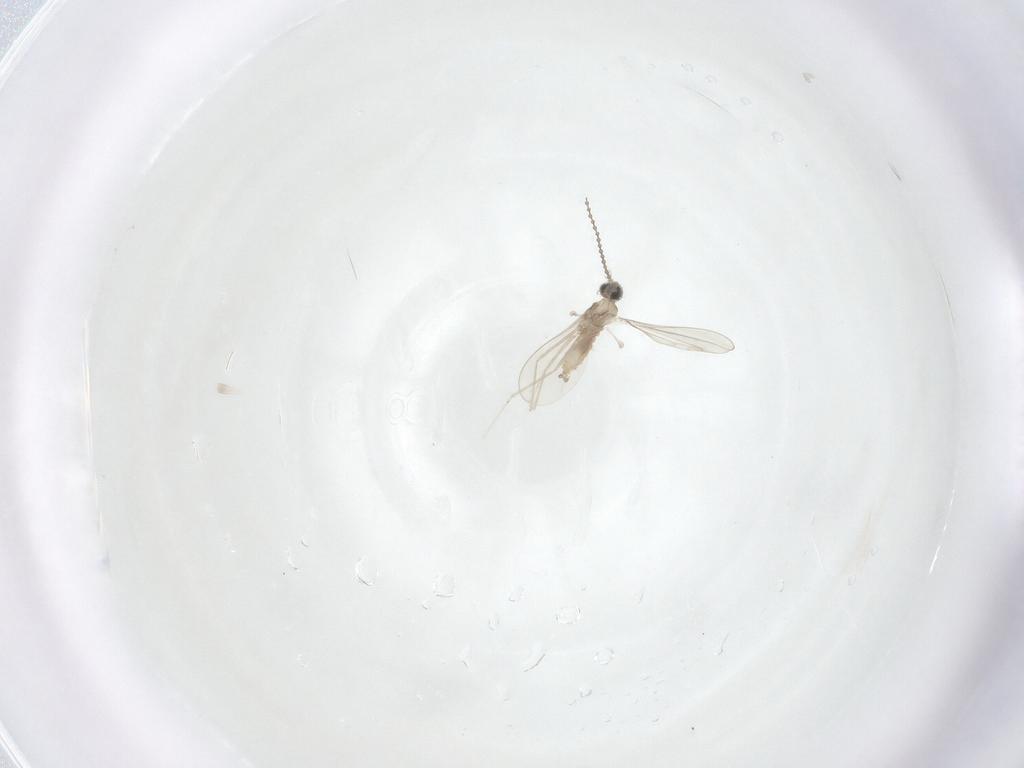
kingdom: Animalia
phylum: Arthropoda
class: Insecta
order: Diptera
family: Cecidomyiidae
